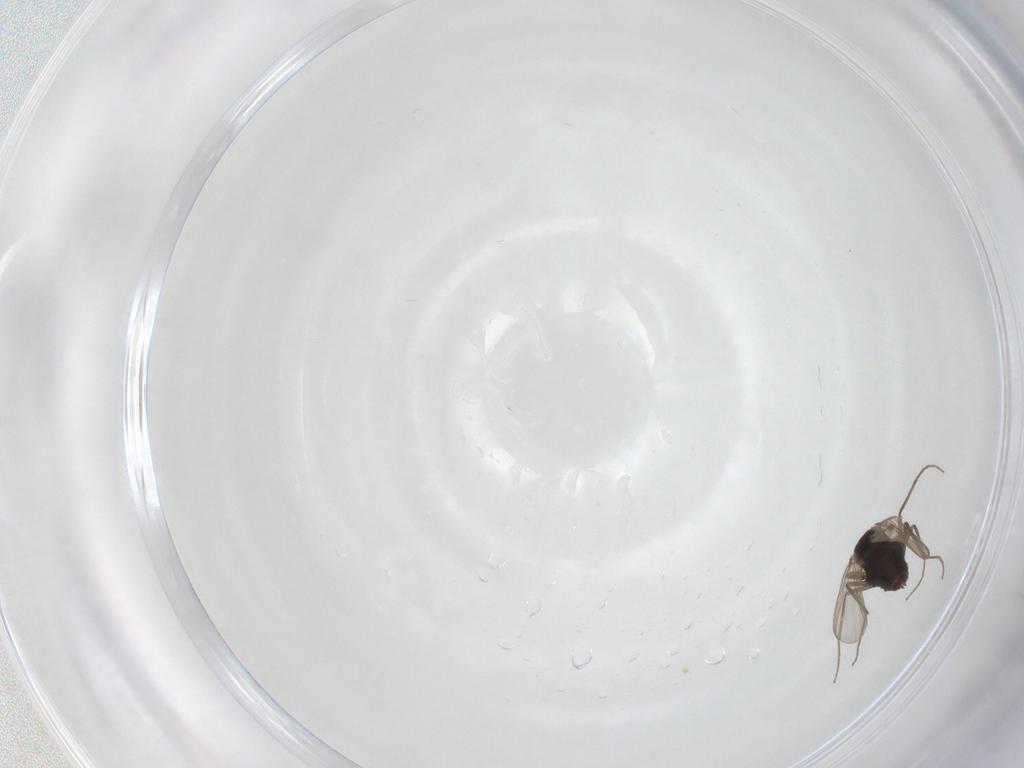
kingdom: Animalia
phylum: Arthropoda
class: Insecta
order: Diptera
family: Chironomidae
